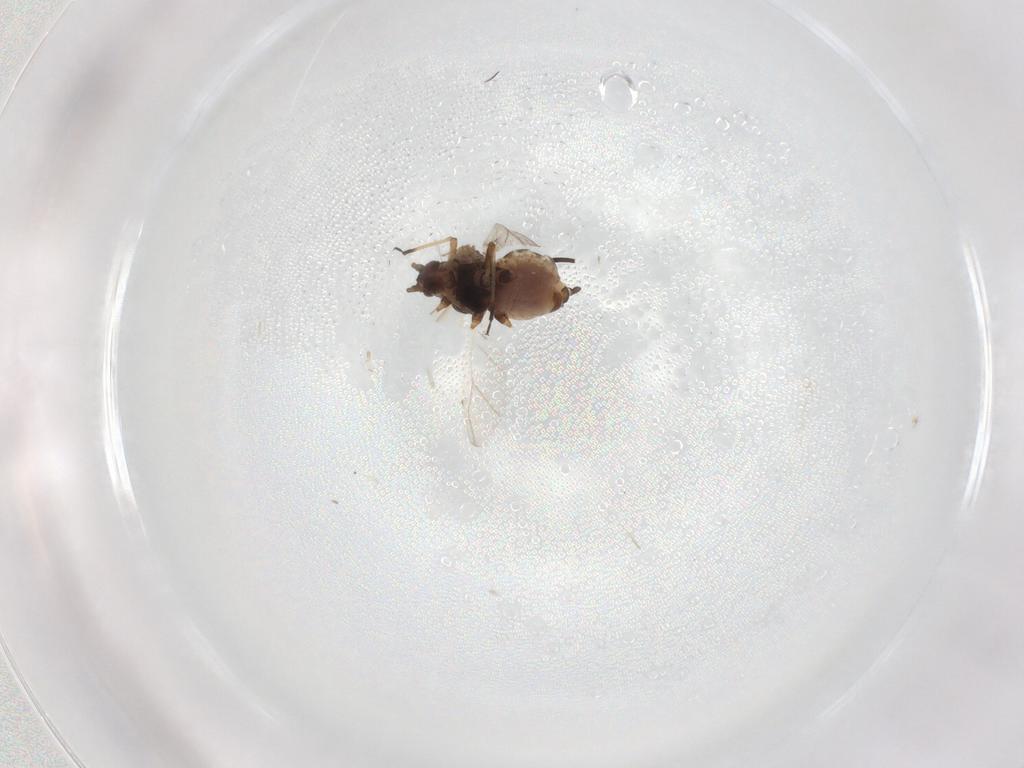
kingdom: Animalia
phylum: Arthropoda
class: Insecta
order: Hemiptera
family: Aphididae
